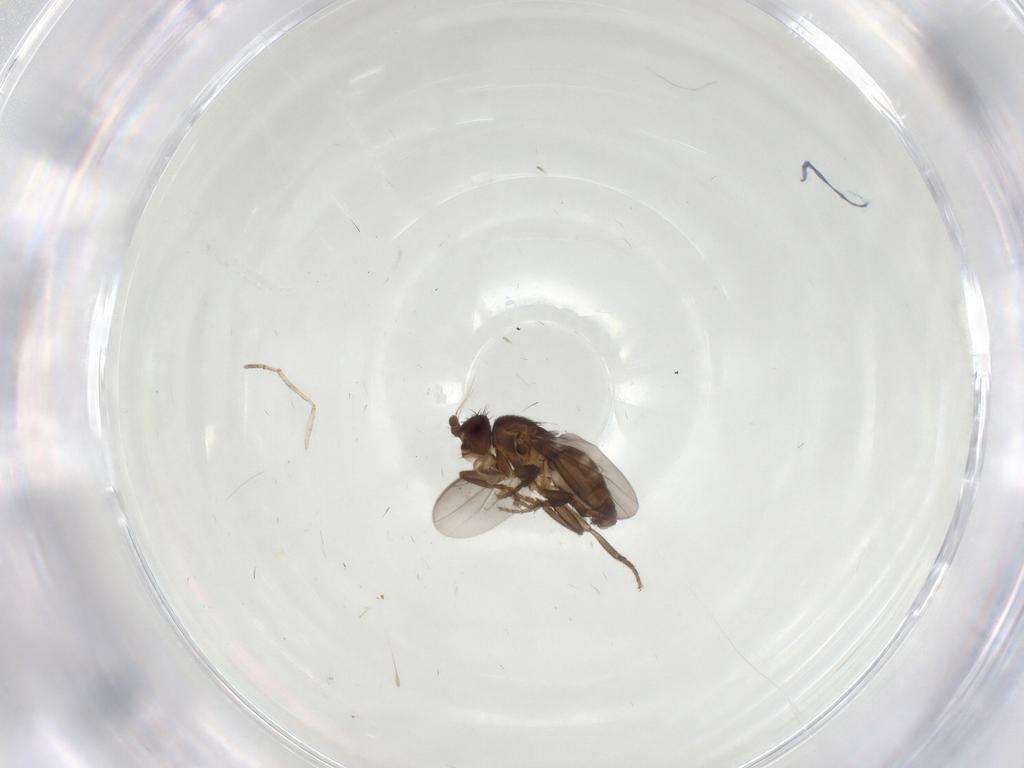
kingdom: Animalia
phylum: Arthropoda
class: Insecta
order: Diptera
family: Sphaeroceridae
